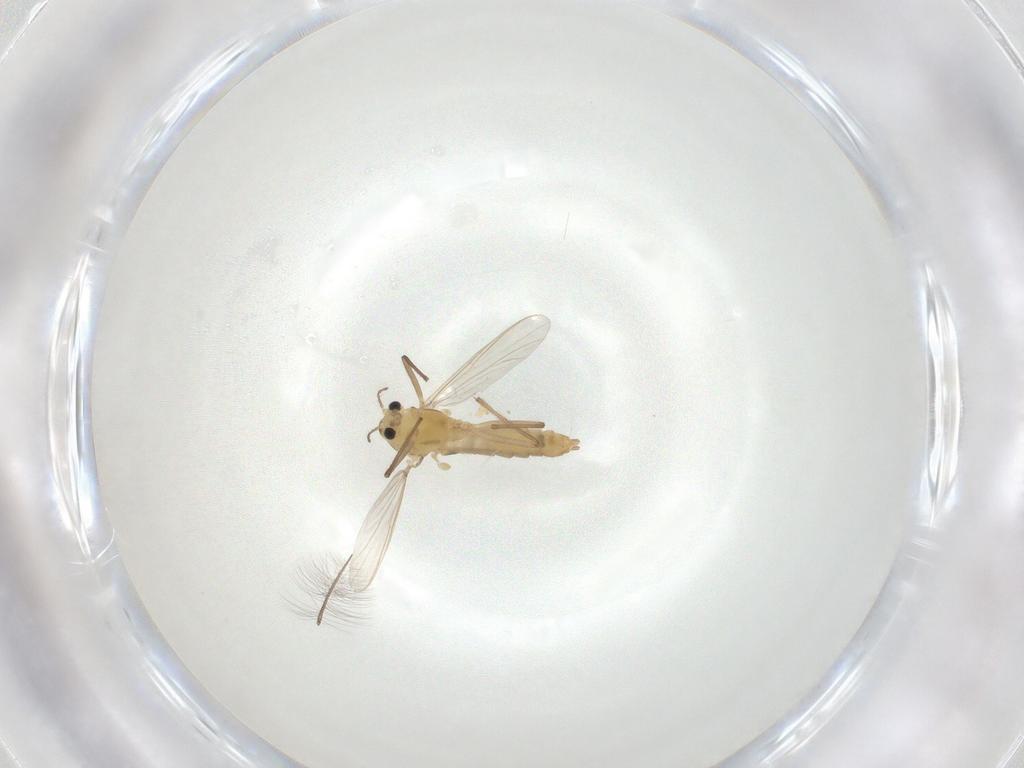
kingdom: Animalia
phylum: Arthropoda
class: Insecta
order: Diptera
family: Chironomidae
